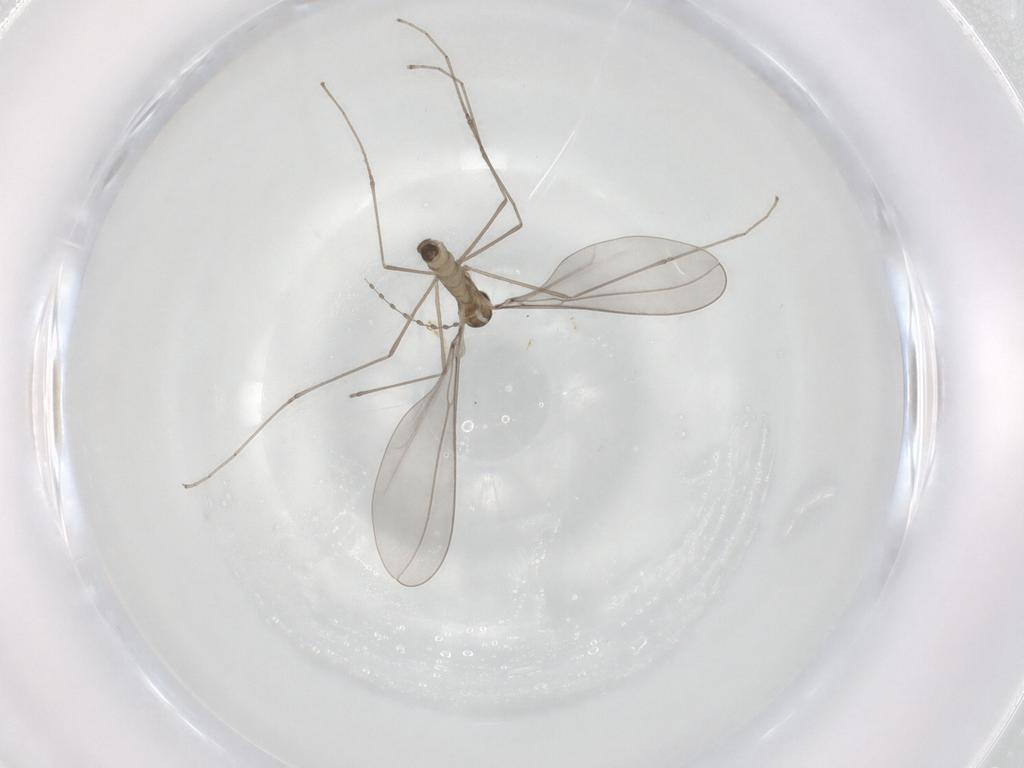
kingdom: Animalia
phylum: Arthropoda
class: Insecta
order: Diptera
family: Cecidomyiidae
